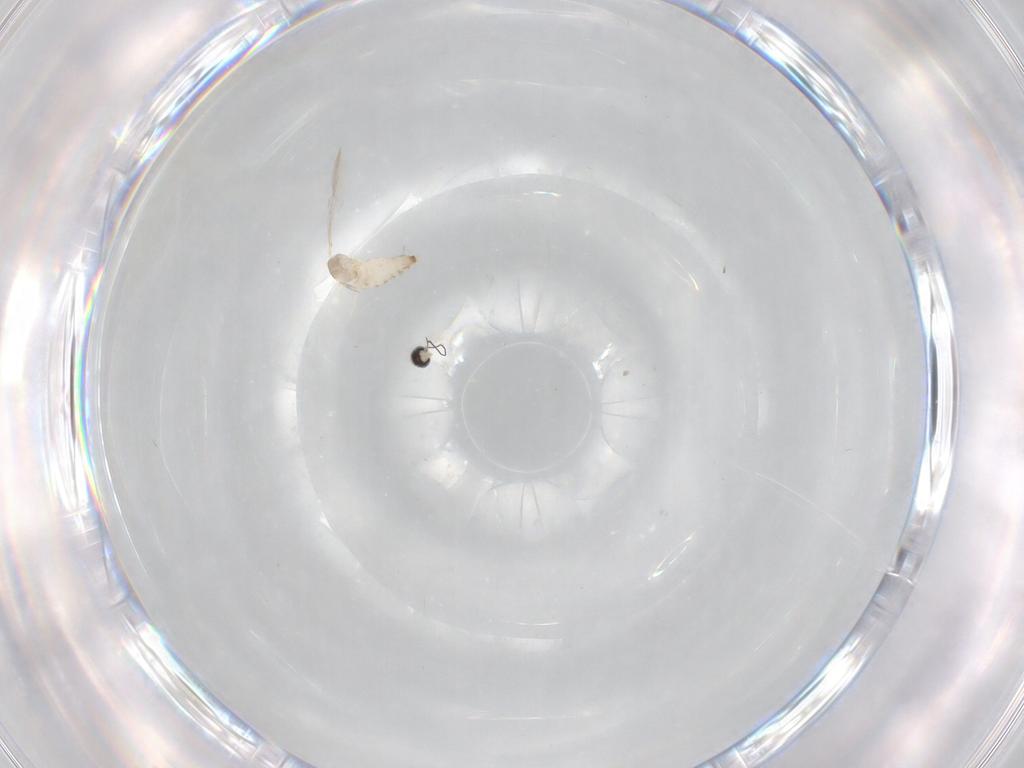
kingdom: Animalia
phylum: Arthropoda
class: Insecta
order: Diptera
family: Cecidomyiidae
